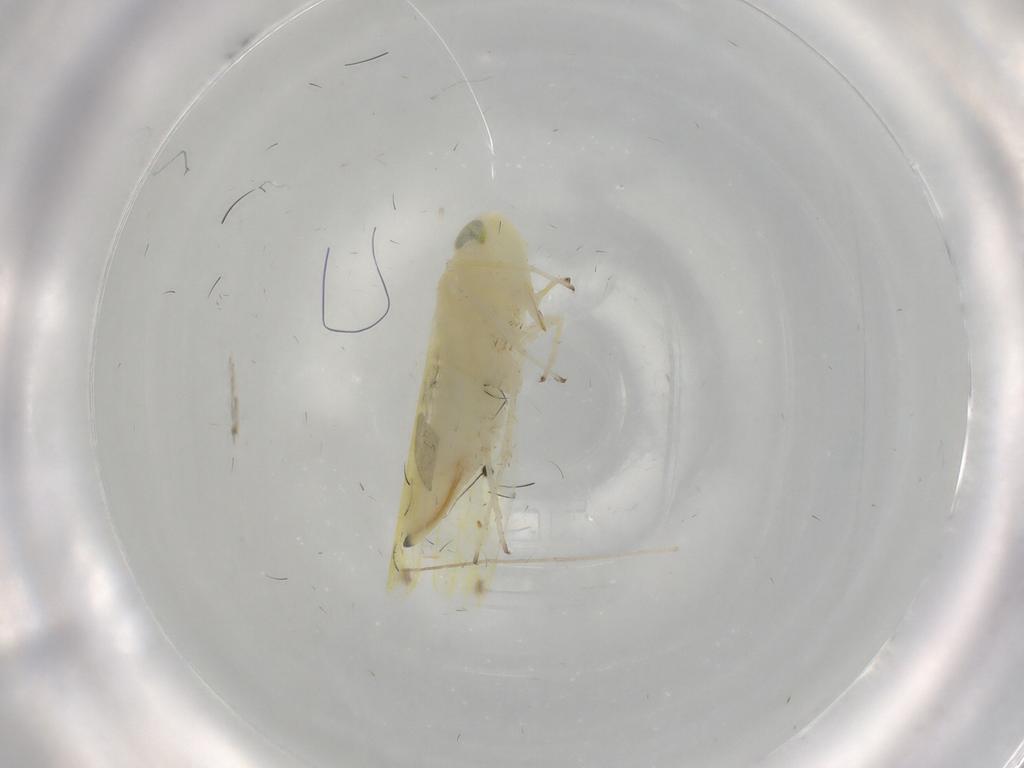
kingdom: Animalia
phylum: Arthropoda
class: Insecta
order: Hemiptera
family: Cicadellidae
